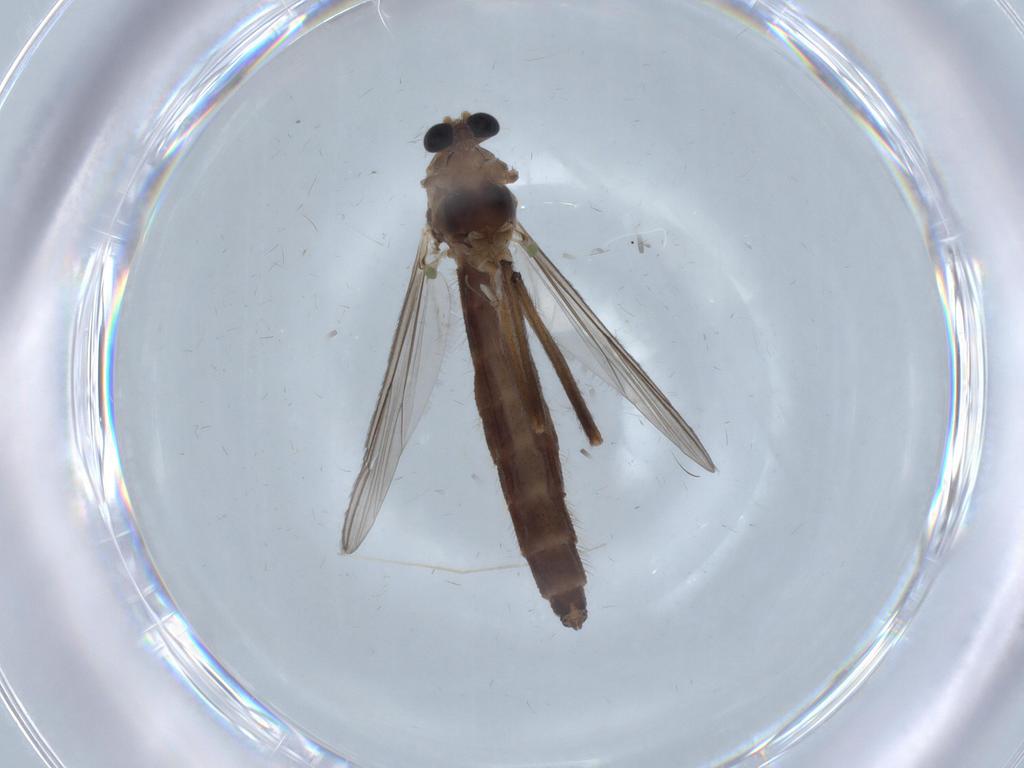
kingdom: Animalia
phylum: Arthropoda
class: Insecta
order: Diptera
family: Chironomidae
